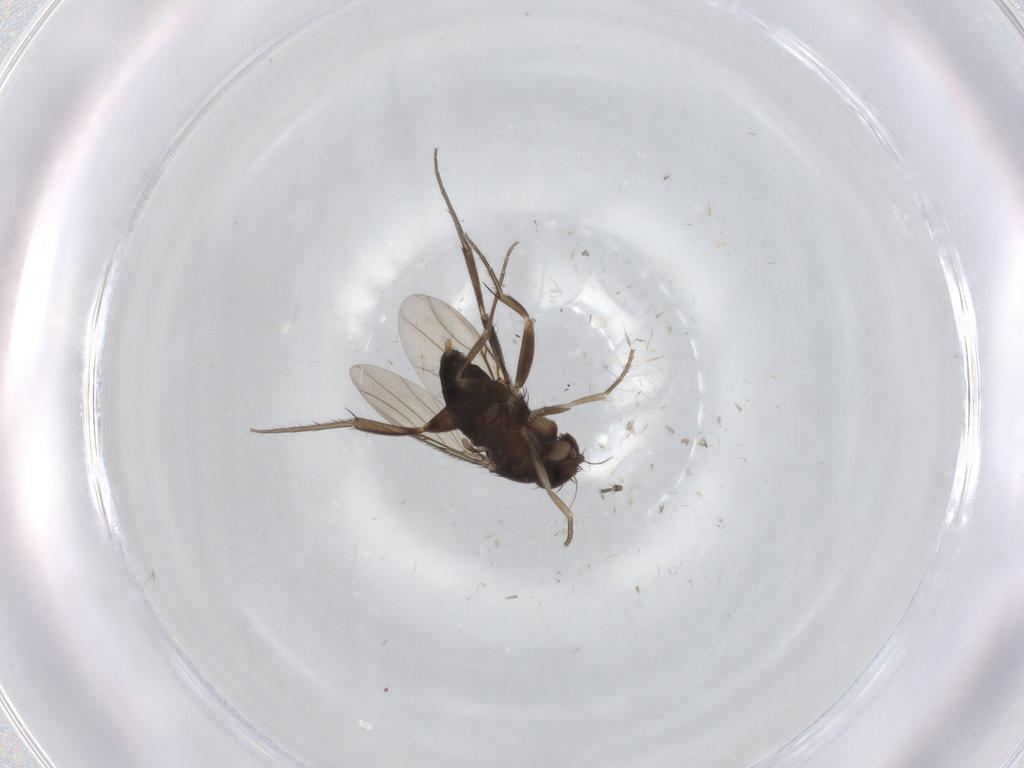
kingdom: Animalia
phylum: Arthropoda
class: Insecta
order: Diptera
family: Phoridae
